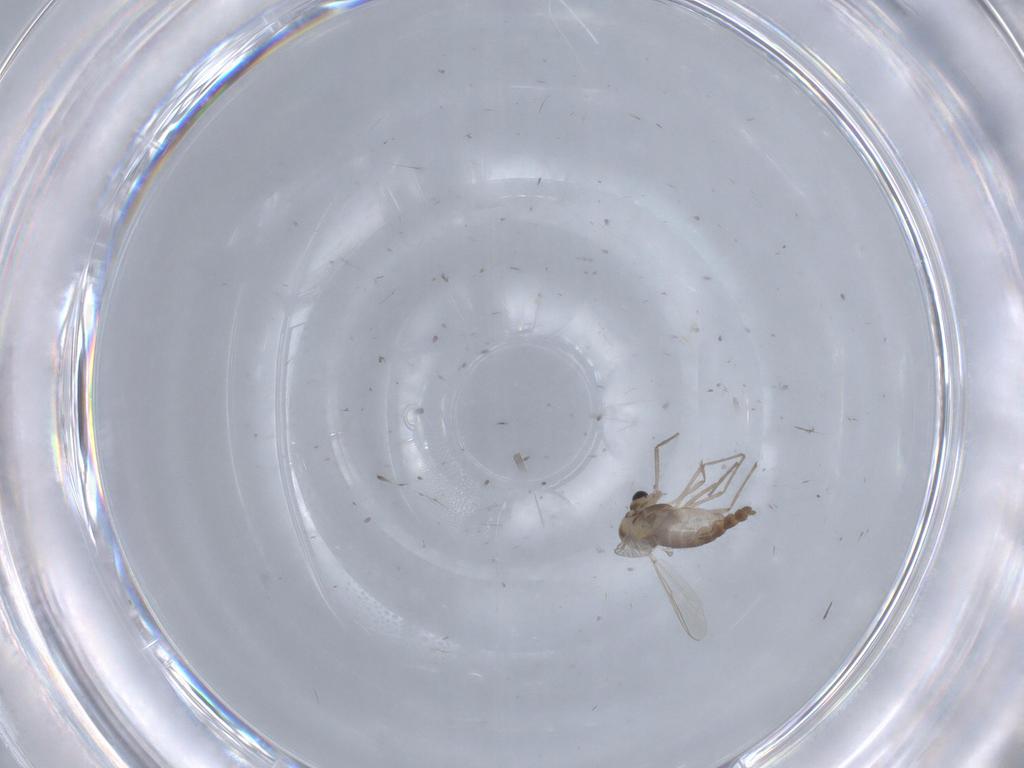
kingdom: Animalia
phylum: Arthropoda
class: Insecta
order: Diptera
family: Chironomidae
